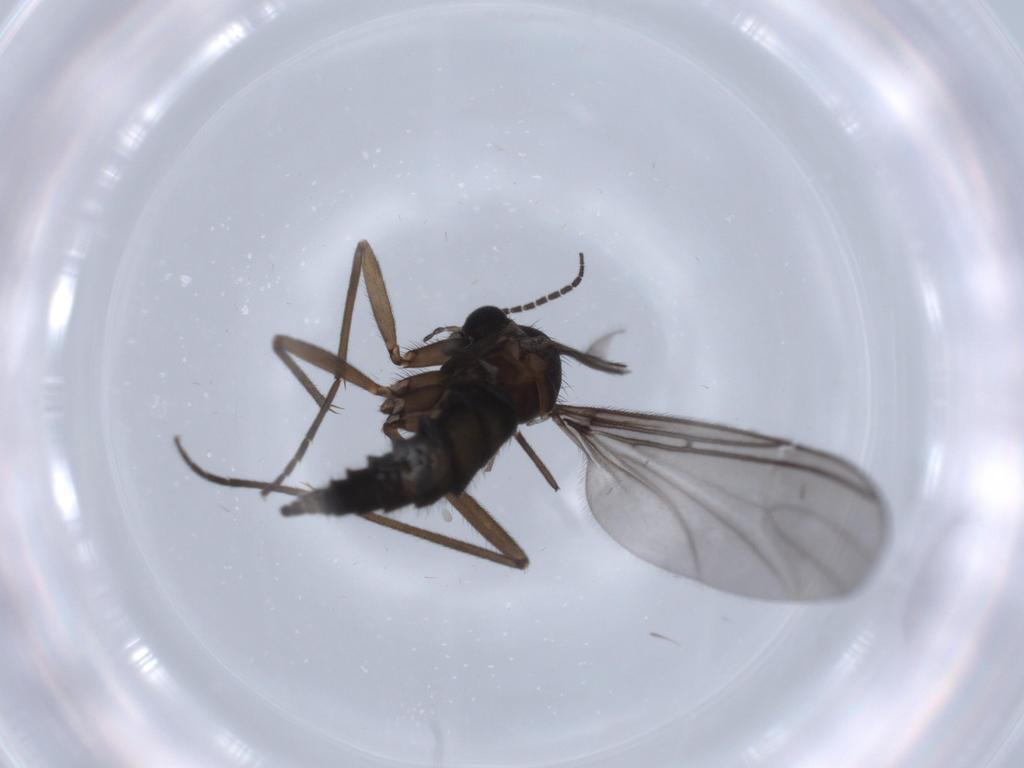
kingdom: Animalia
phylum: Arthropoda
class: Insecta
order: Diptera
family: Sciaridae
